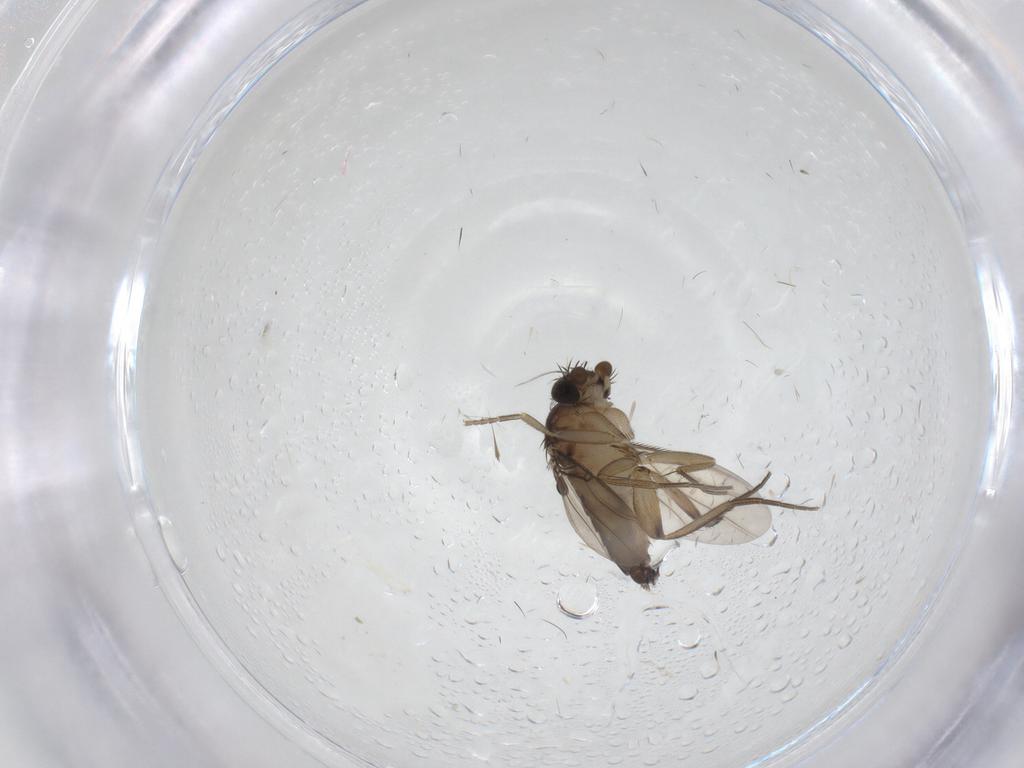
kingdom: Animalia
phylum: Arthropoda
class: Insecta
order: Diptera
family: Phoridae
